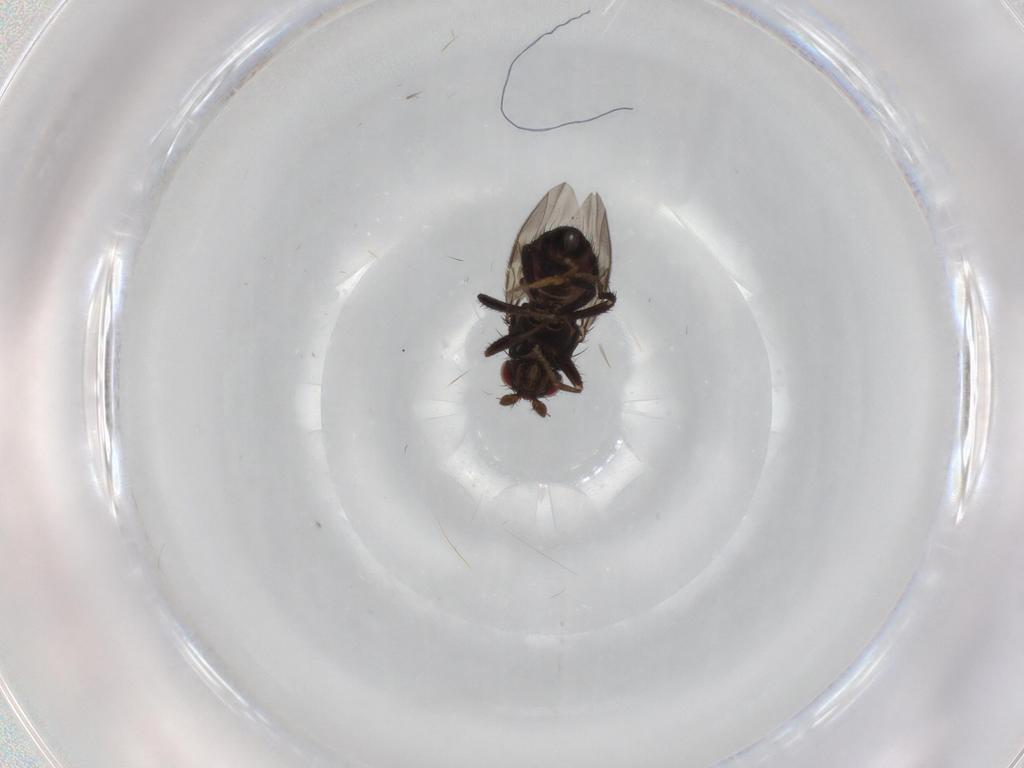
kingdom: Animalia
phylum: Arthropoda
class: Insecta
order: Diptera
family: Sphaeroceridae
